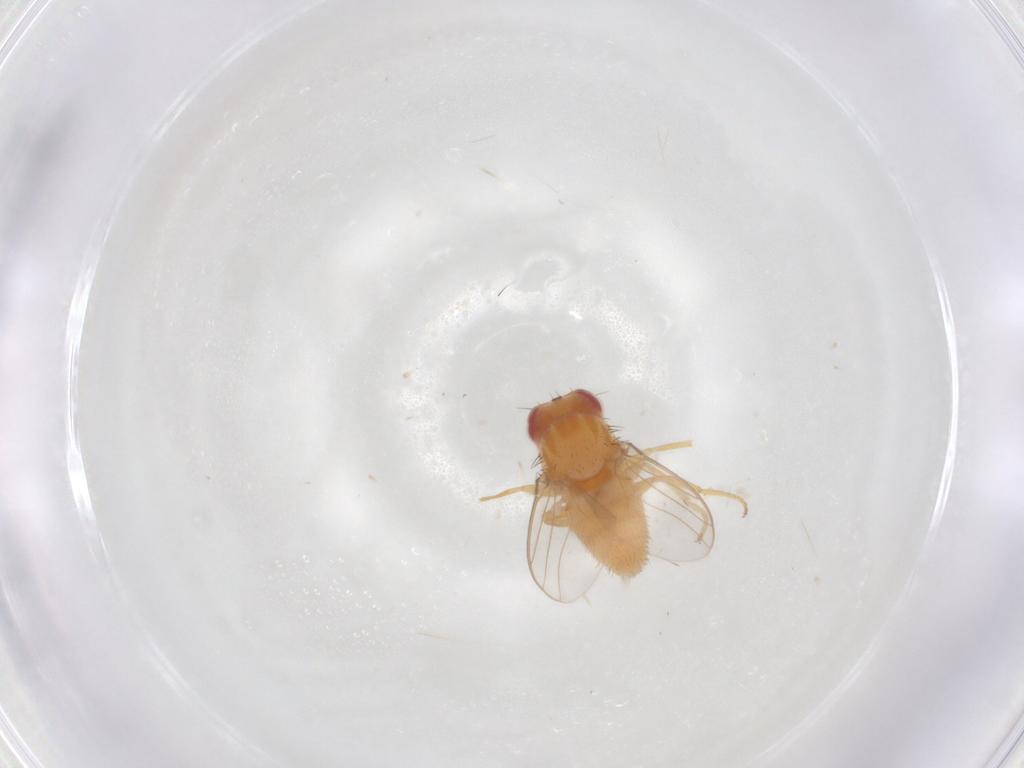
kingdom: Animalia
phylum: Arthropoda
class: Insecta
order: Diptera
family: Chloropidae
